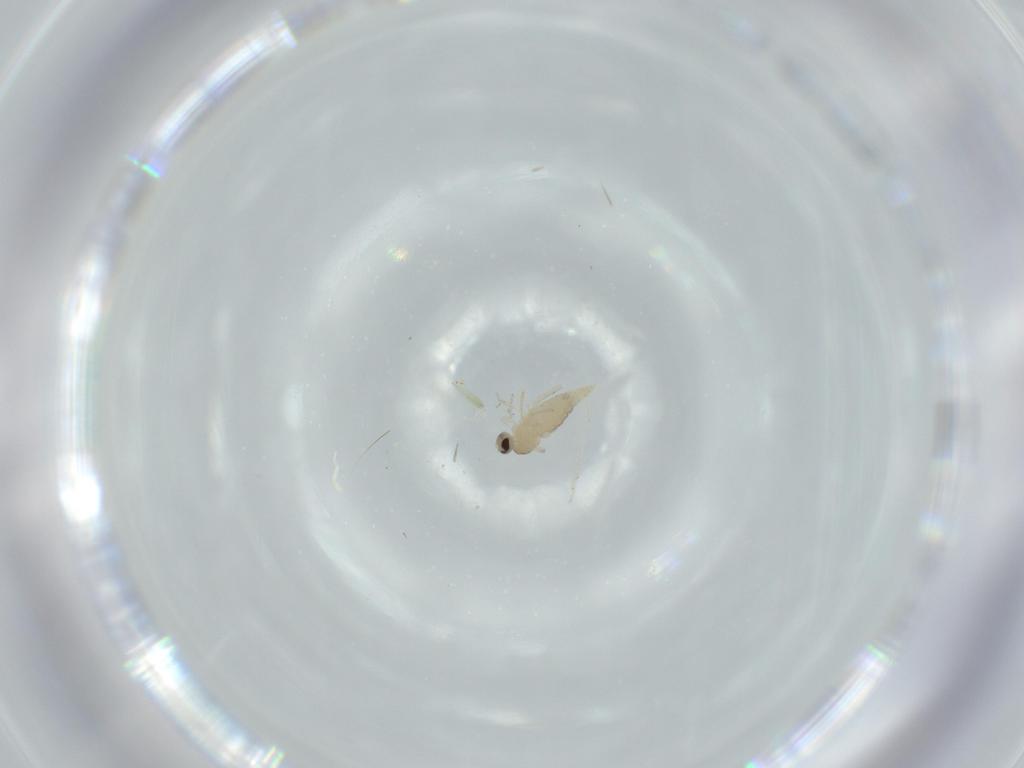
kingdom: Animalia
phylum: Arthropoda
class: Insecta
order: Diptera
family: Cecidomyiidae
